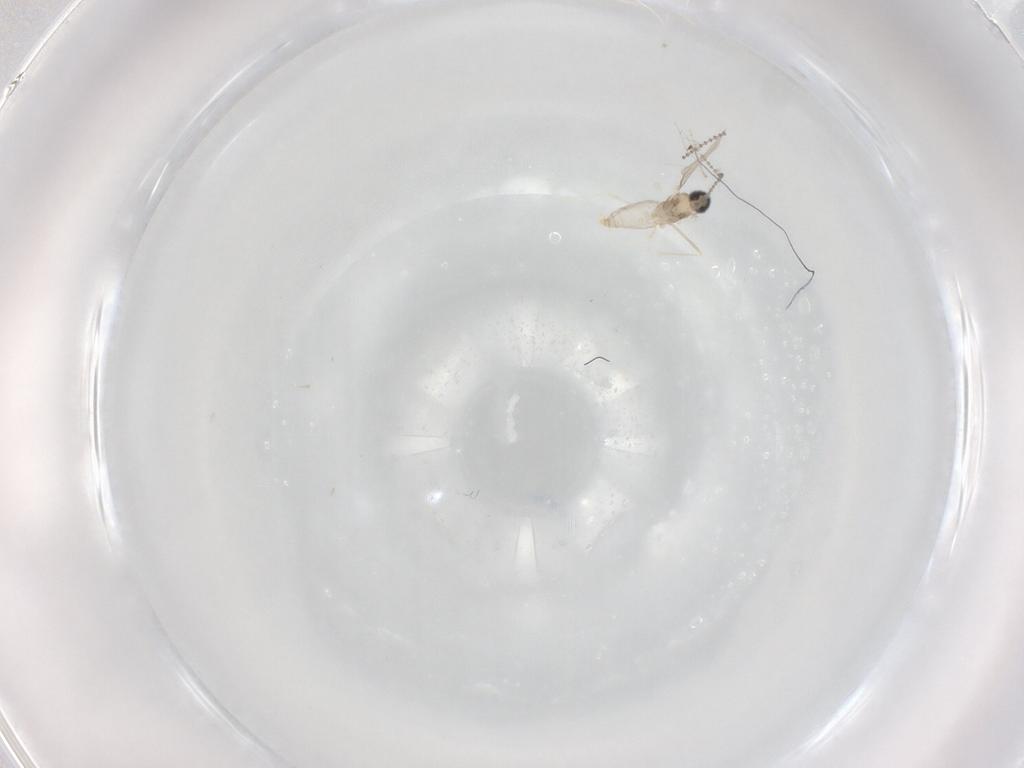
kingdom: Animalia
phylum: Arthropoda
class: Insecta
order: Diptera
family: Cecidomyiidae
